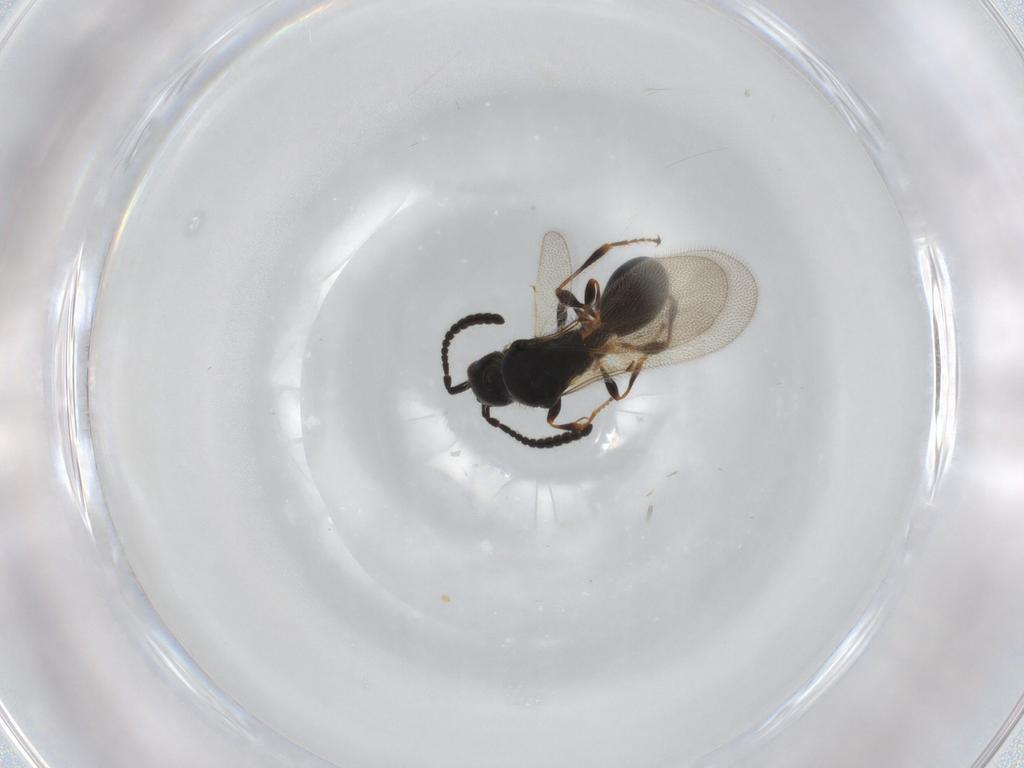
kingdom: Animalia
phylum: Arthropoda
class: Insecta
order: Hymenoptera
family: Diapriidae
